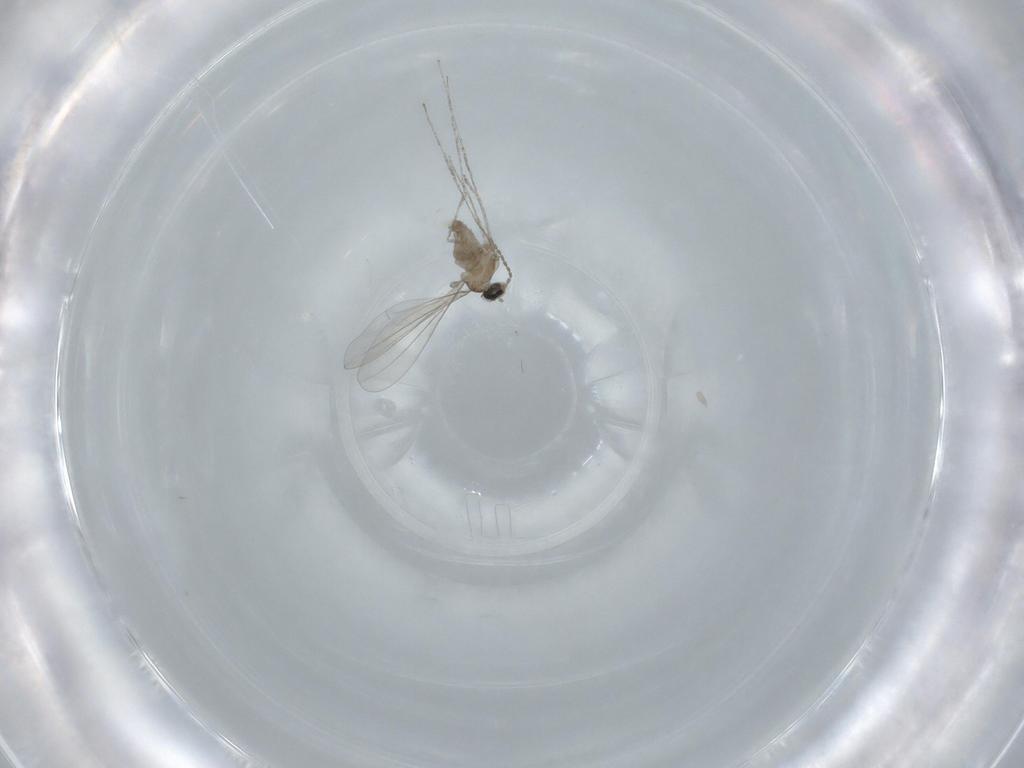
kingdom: Animalia
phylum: Arthropoda
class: Insecta
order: Diptera
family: Cecidomyiidae
